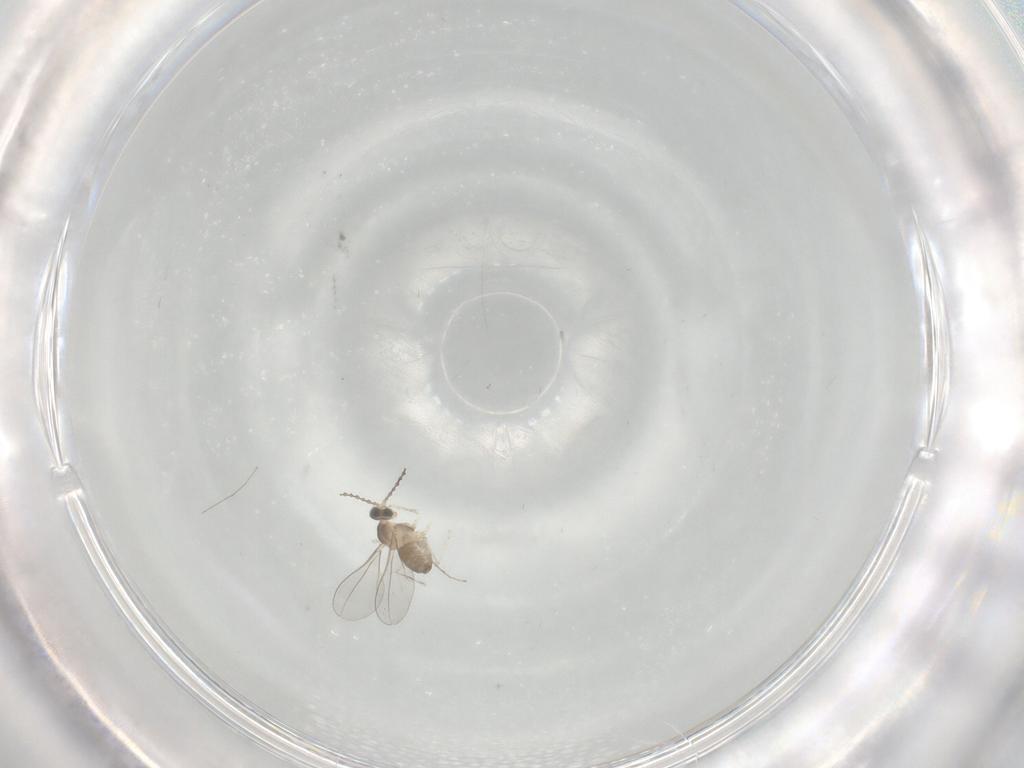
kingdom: Animalia
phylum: Arthropoda
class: Insecta
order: Diptera
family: Cecidomyiidae
